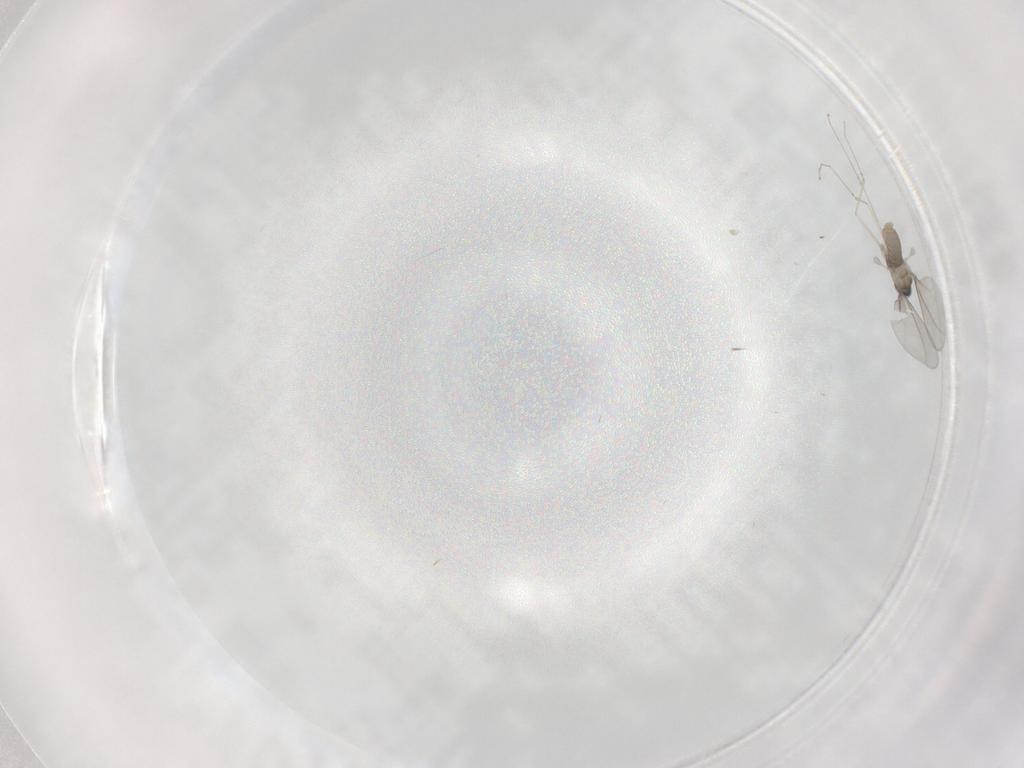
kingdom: Animalia
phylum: Arthropoda
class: Insecta
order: Diptera
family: Cecidomyiidae
